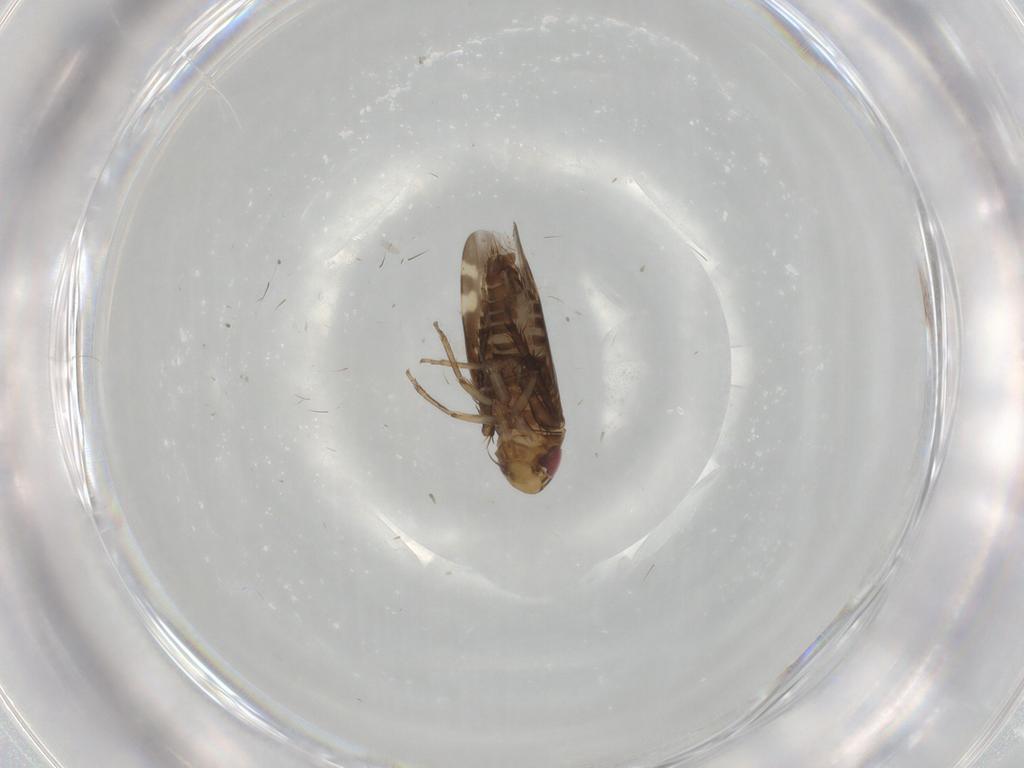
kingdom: Animalia
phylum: Arthropoda
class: Insecta
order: Hemiptera
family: Cicadellidae
